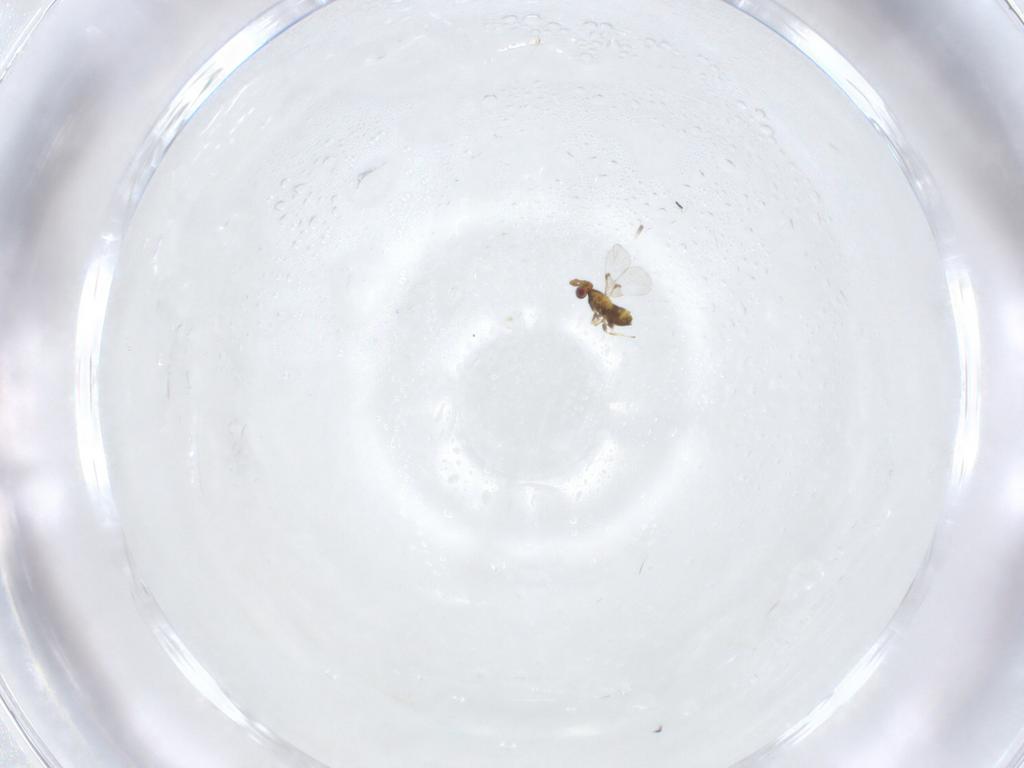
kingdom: Animalia
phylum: Arthropoda
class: Insecta
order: Hymenoptera
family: Trichogrammatidae
